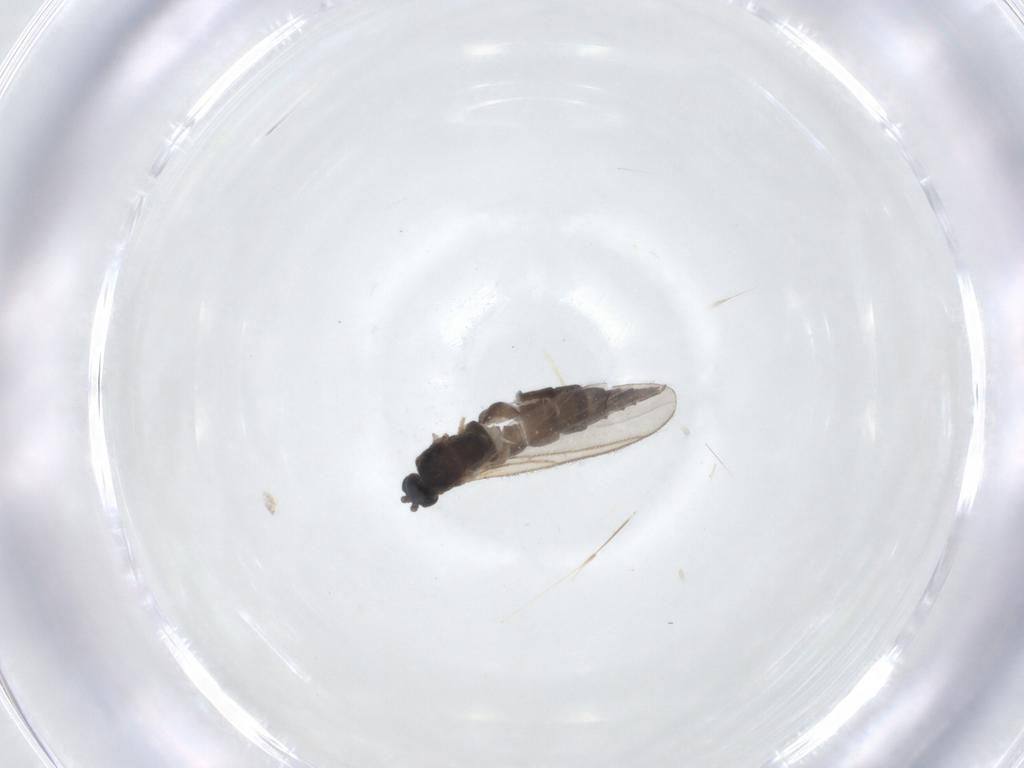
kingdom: Animalia
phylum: Arthropoda
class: Insecta
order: Diptera
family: Sciaridae
